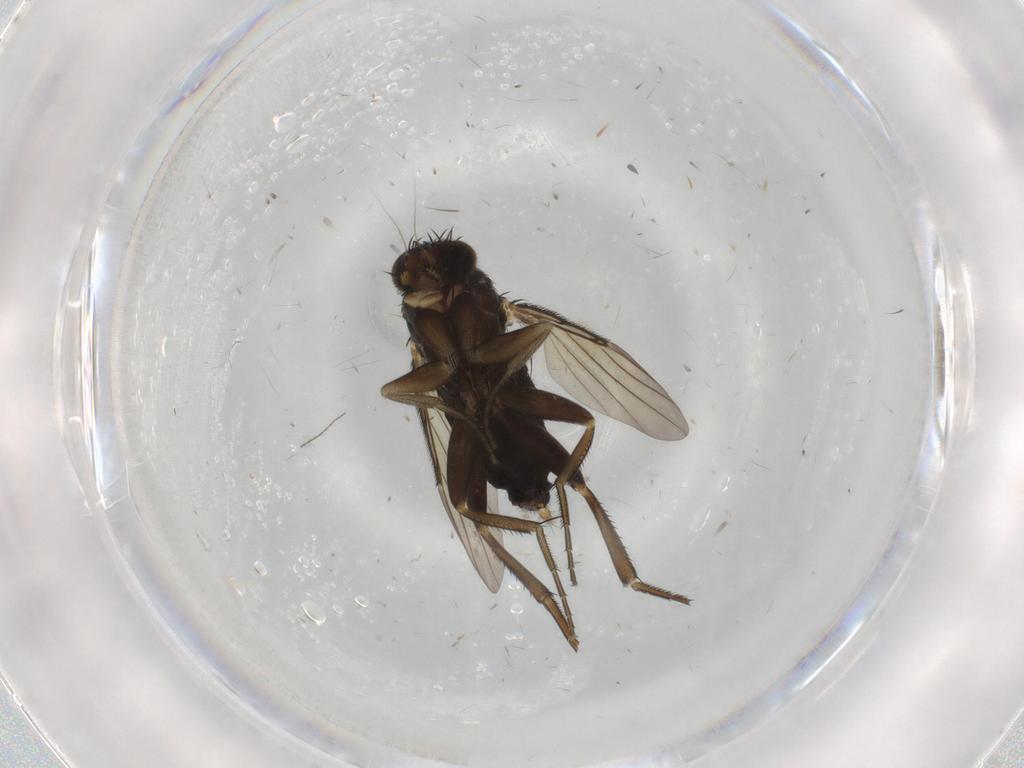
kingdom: Animalia
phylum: Arthropoda
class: Insecta
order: Diptera
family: Phoridae
